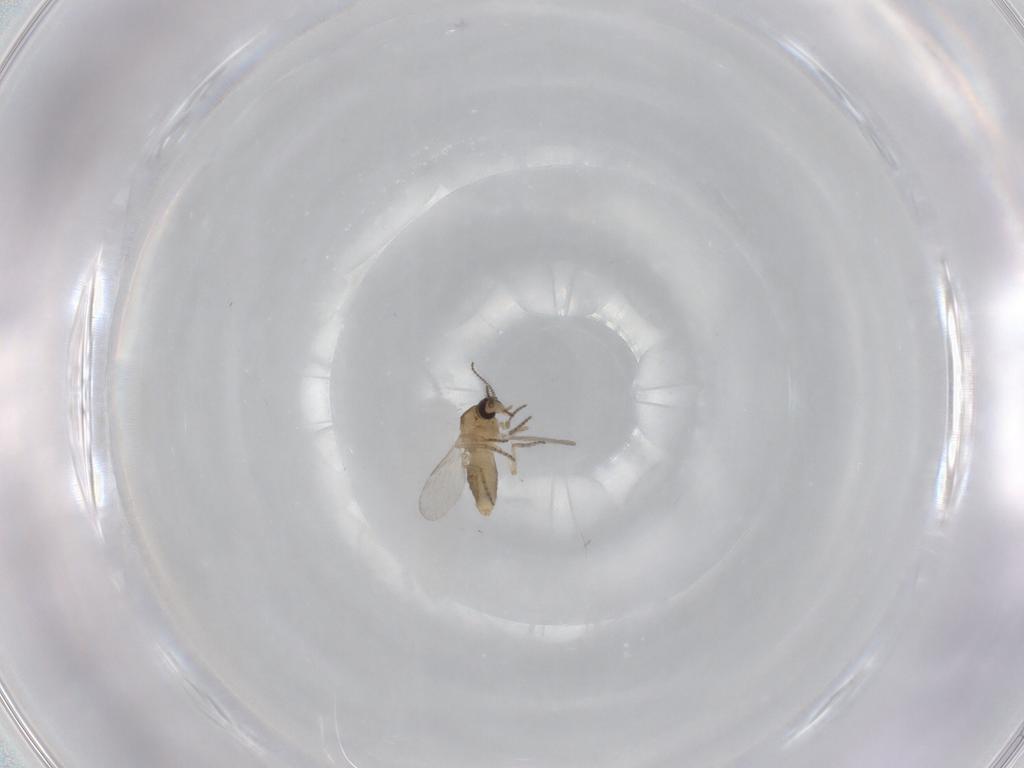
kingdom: Animalia
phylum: Arthropoda
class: Insecta
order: Diptera
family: Ceratopogonidae
